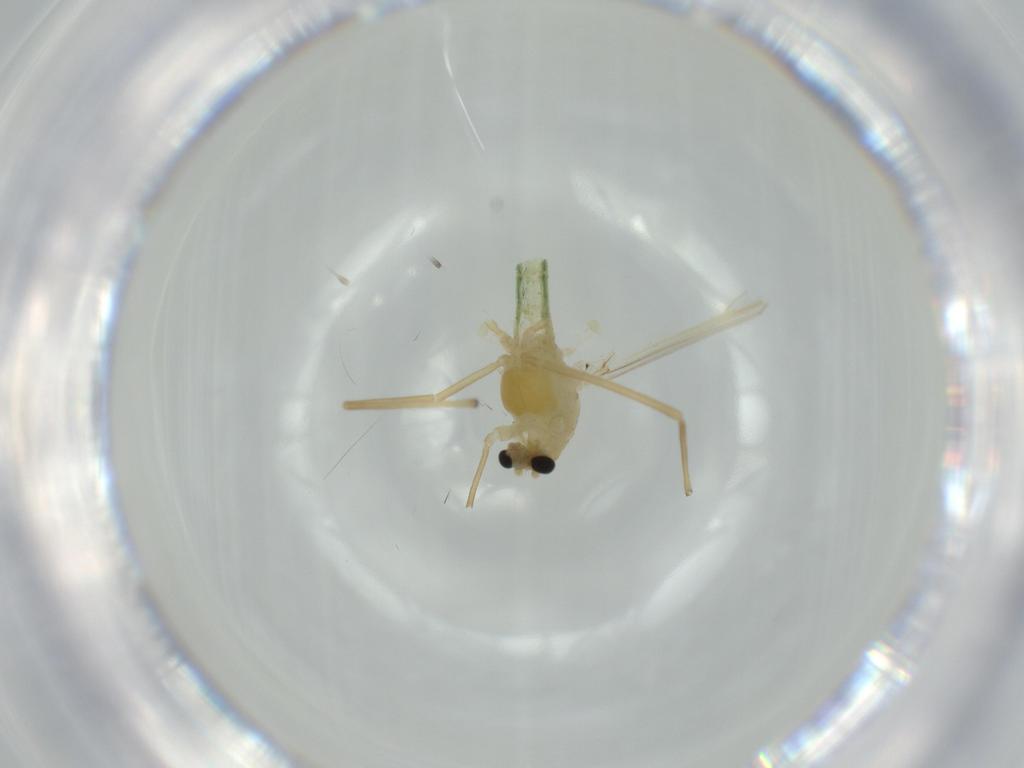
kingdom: Animalia
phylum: Arthropoda
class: Insecta
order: Diptera
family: Chironomidae
